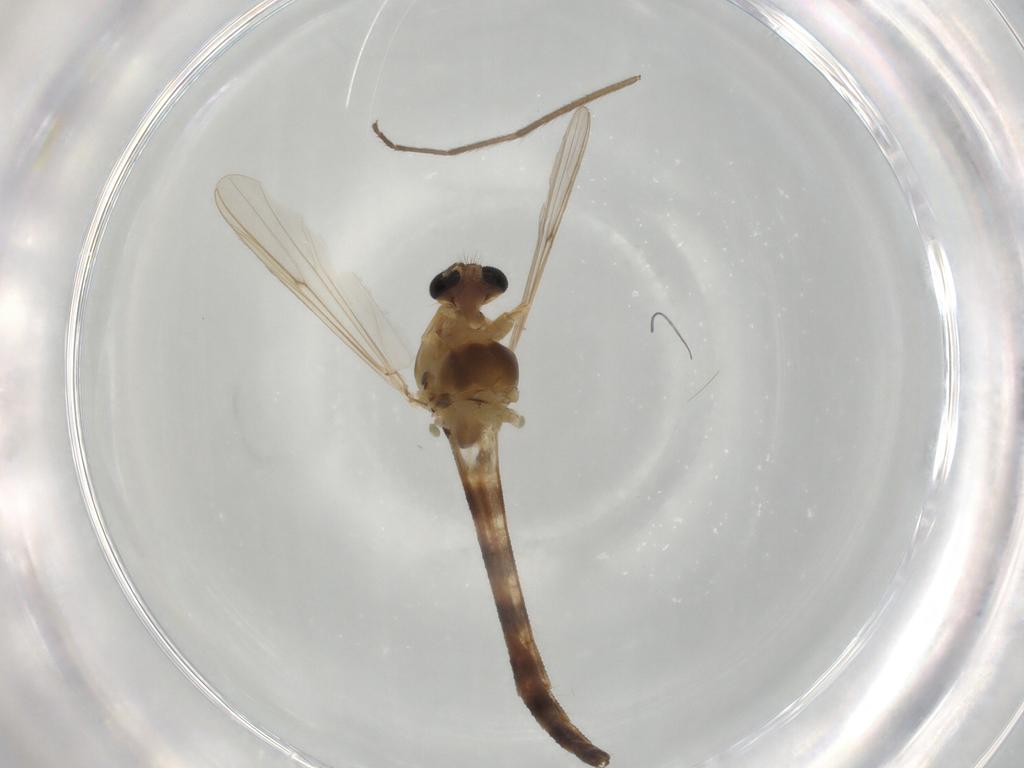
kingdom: Animalia
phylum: Arthropoda
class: Insecta
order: Diptera
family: Chironomidae
